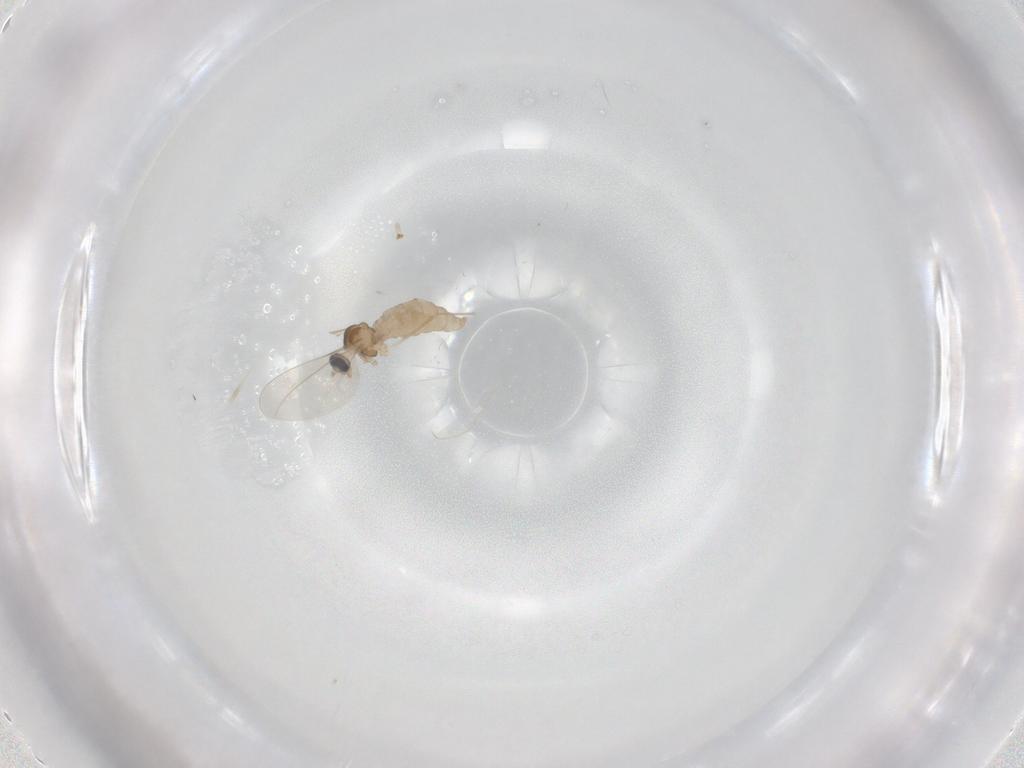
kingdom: Animalia
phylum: Arthropoda
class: Insecta
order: Diptera
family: Cecidomyiidae
